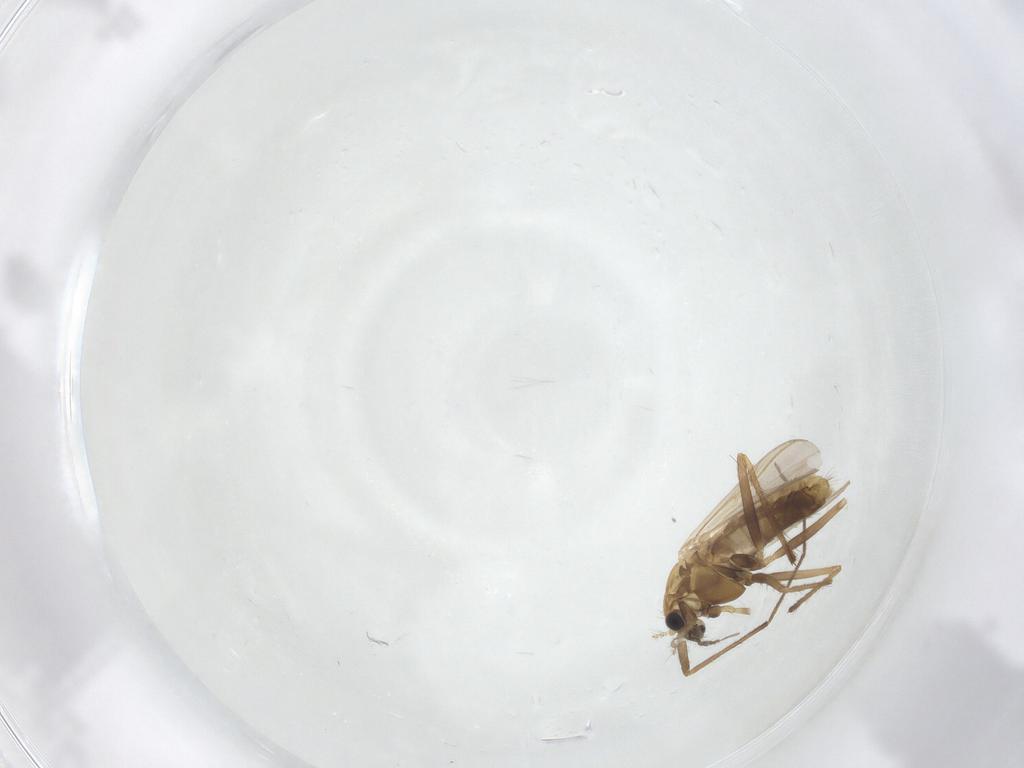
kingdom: Animalia
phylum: Arthropoda
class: Insecta
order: Diptera
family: Chironomidae
